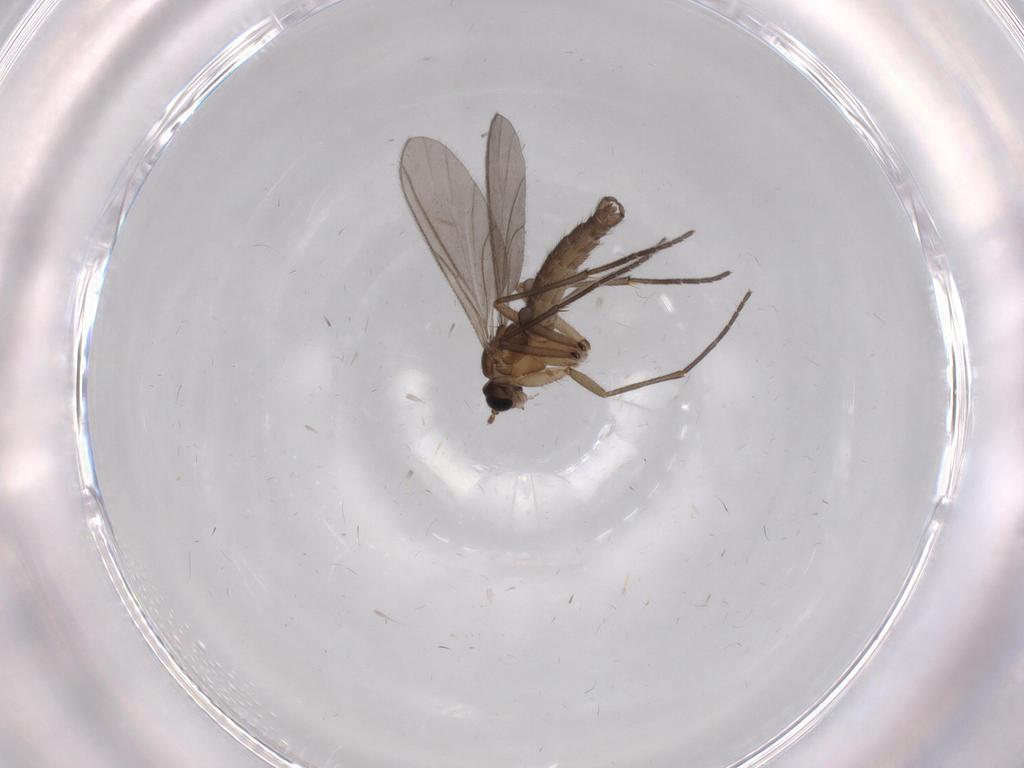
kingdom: Animalia
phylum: Arthropoda
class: Insecta
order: Diptera
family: Sciaridae
